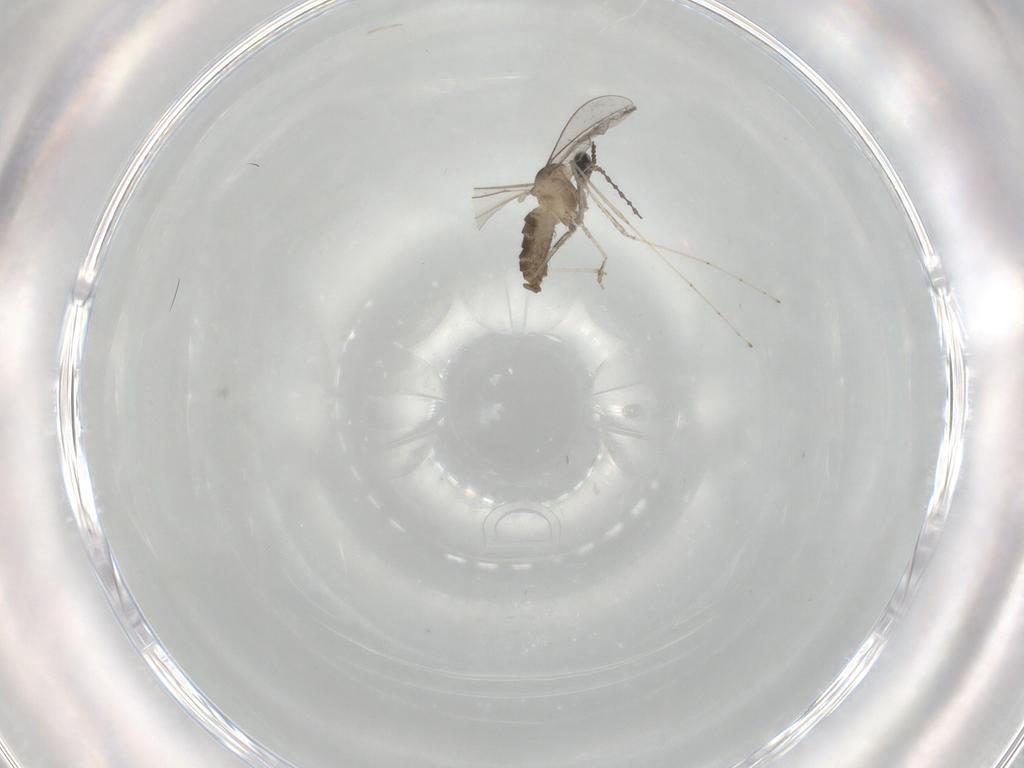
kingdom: Animalia
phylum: Arthropoda
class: Insecta
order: Diptera
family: Cecidomyiidae
